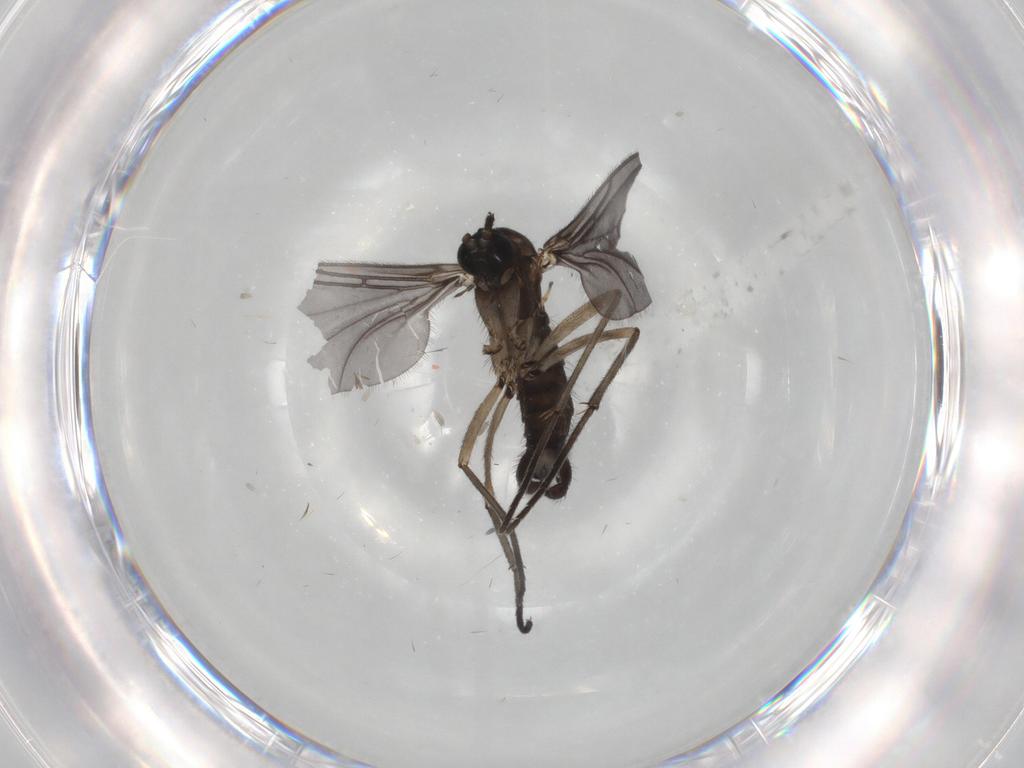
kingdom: Animalia
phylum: Arthropoda
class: Insecta
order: Diptera
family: Sciaridae
